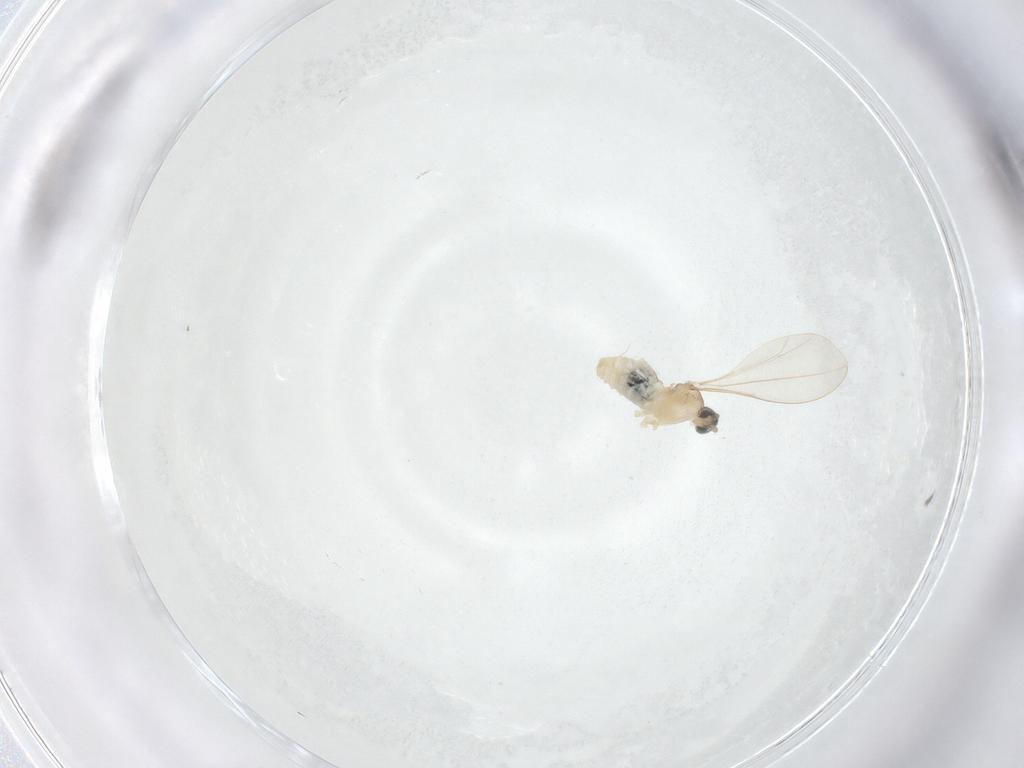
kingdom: Animalia
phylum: Arthropoda
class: Insecta
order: Diptera
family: Cecidomyiidae
